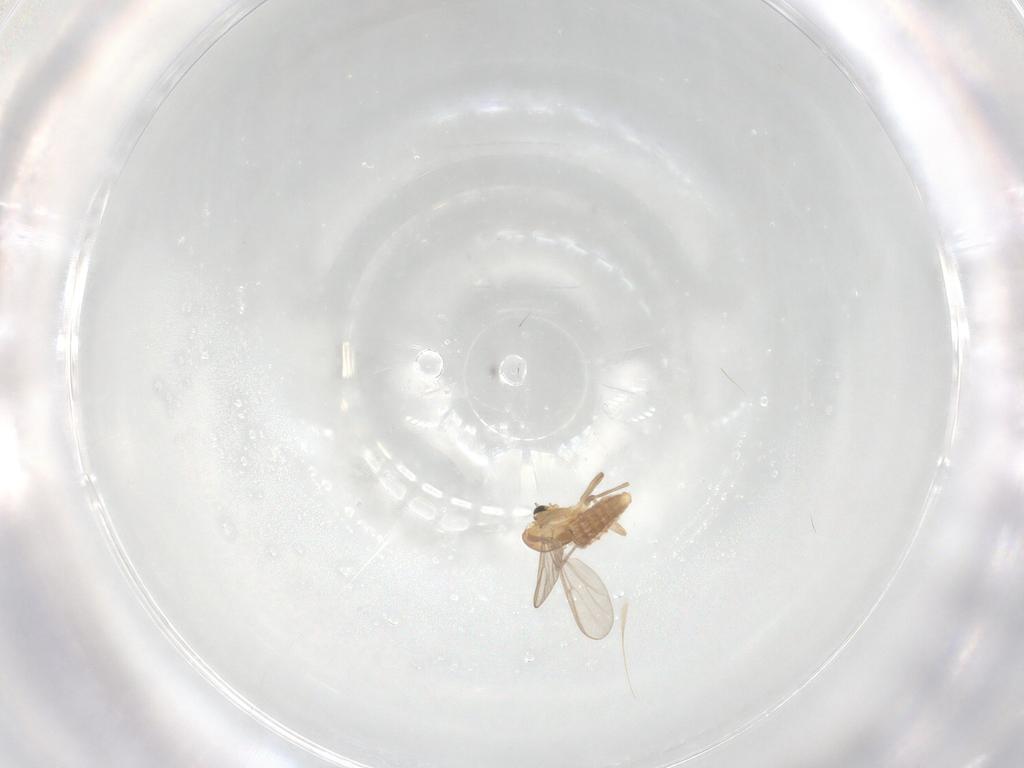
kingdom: Animalia
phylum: Arthropoda
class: Insecta
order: Diptera
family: Chironomidae
